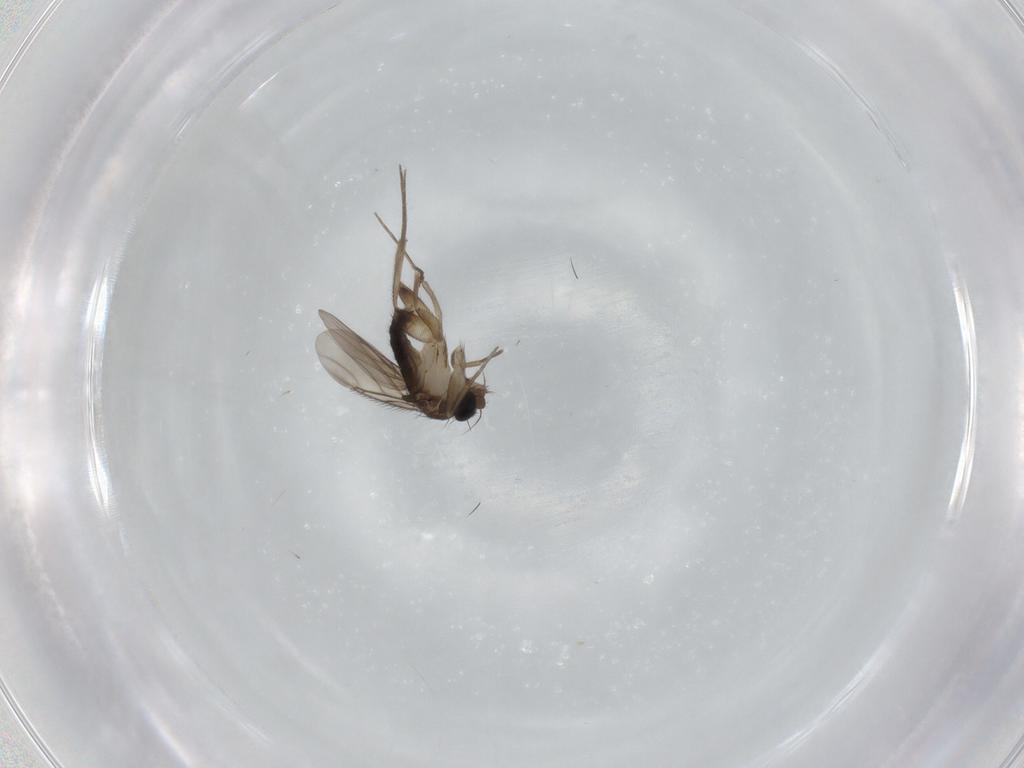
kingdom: Animalia
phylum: Arthropoda
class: Insecta
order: Diptera
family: Phoridae
